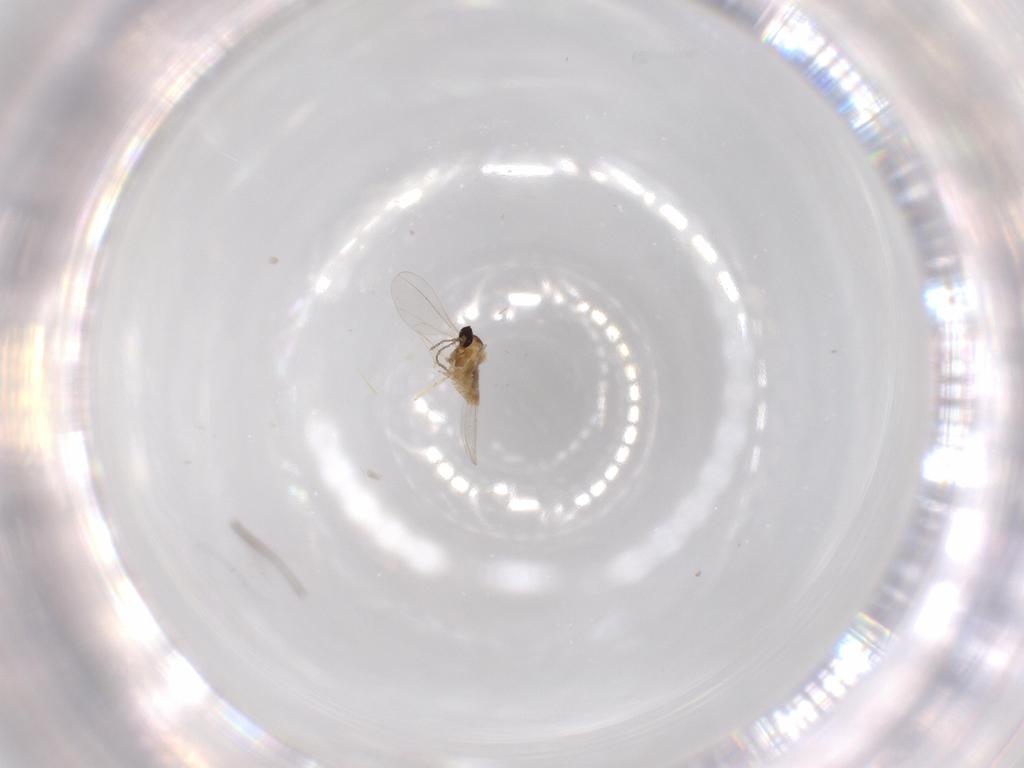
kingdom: Animalia
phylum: Arthropoda
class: Insecta
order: Diptera
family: Cecidomyiidae
